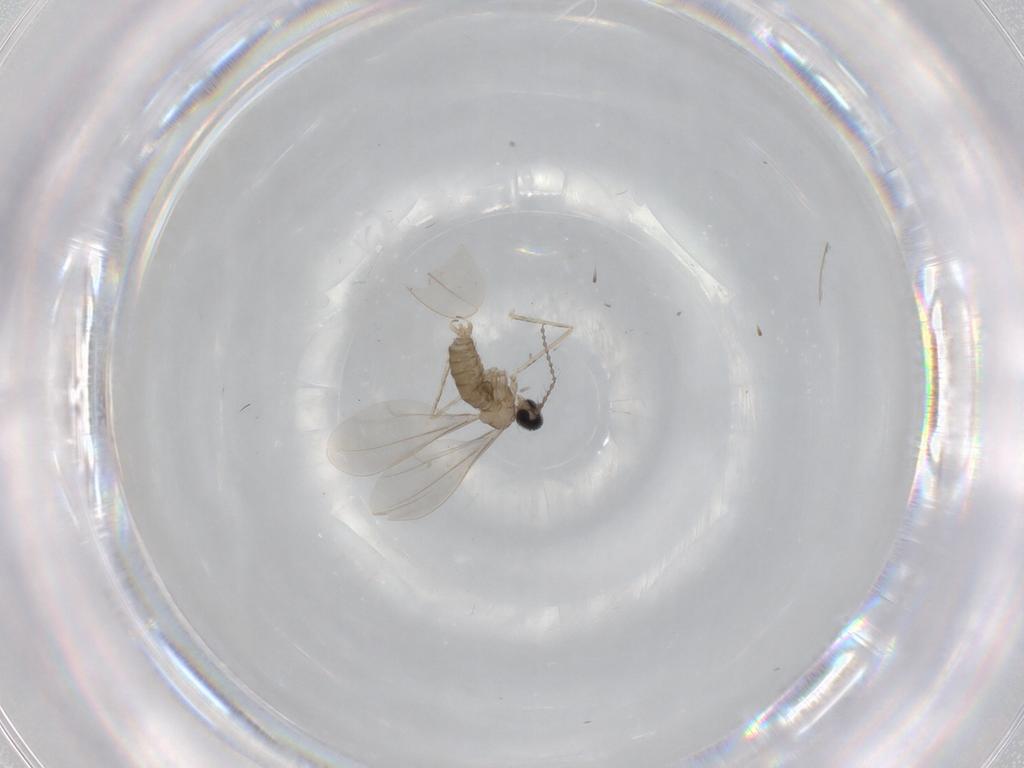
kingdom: Animalia
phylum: Arthropoda
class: Insecta
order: Diptera
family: Cecidomyiidae
